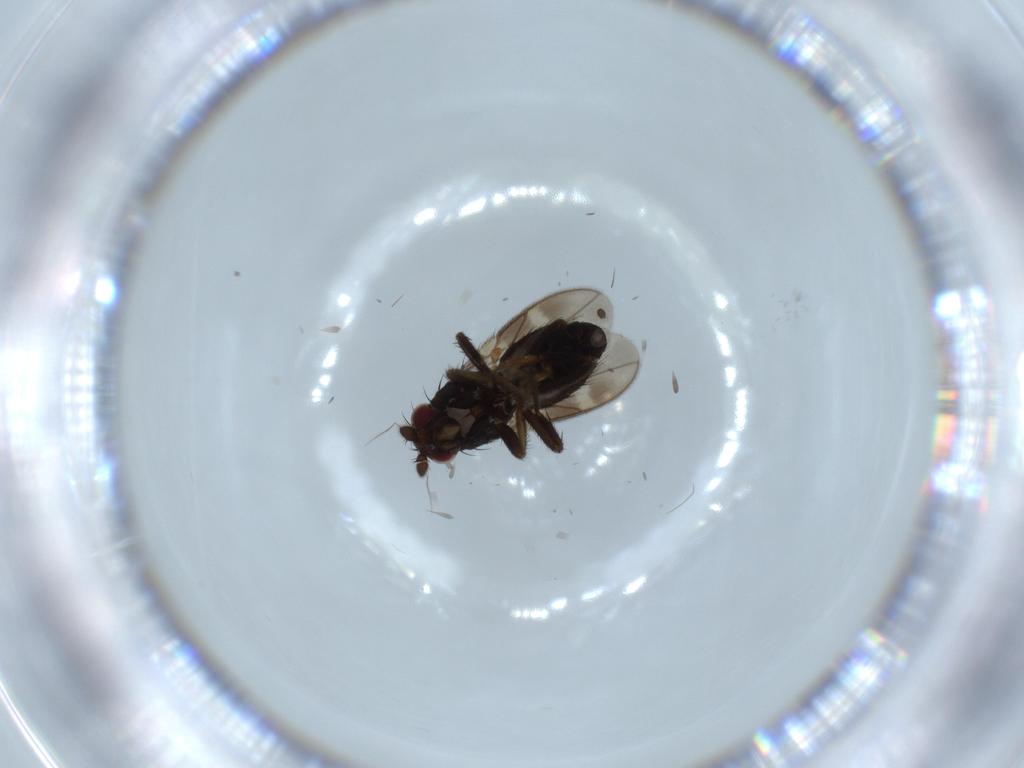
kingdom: Animalia
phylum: Arthropoda
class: Insecta
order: Diptera
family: Sphaeroceridae
